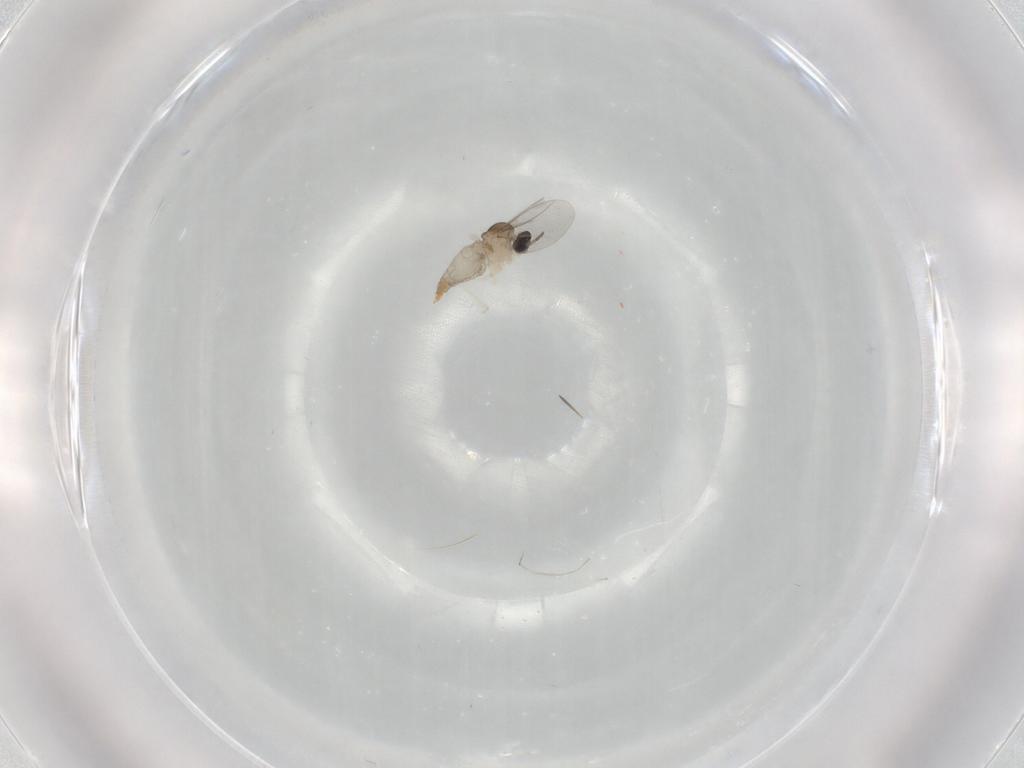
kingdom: Animalia
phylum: Arthropoda
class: Insecta
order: Diptera
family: Cecidomyiidae
